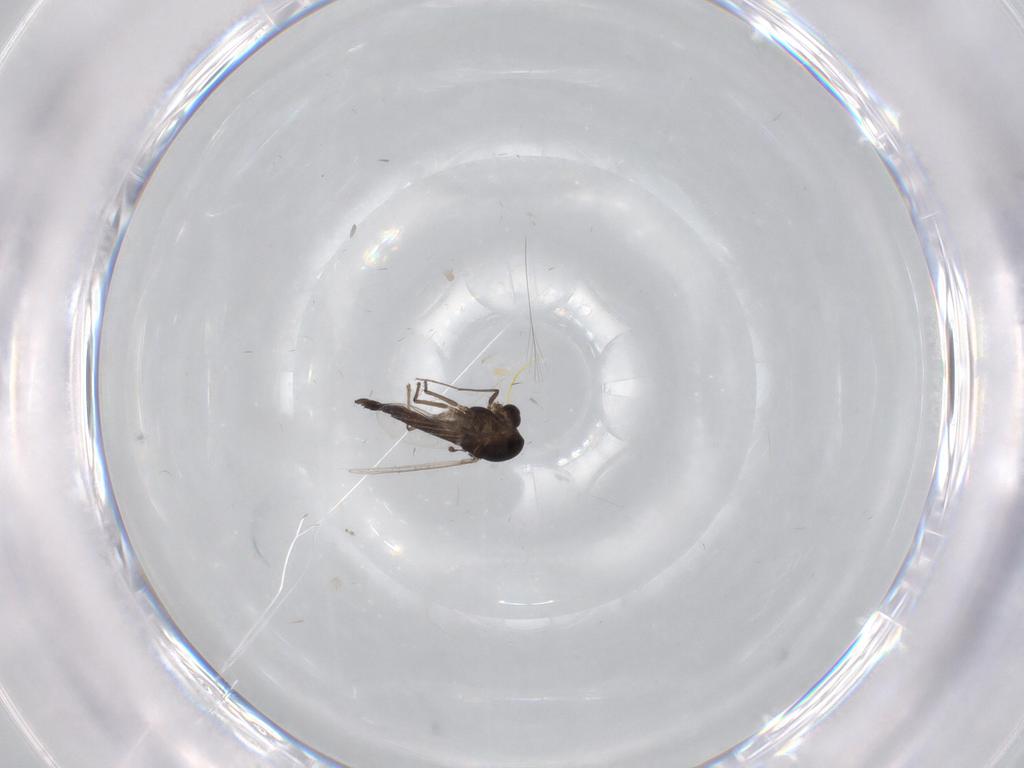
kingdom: Animalia
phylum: Arthropoda
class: Insecta
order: Diptera
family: Chironomidae
